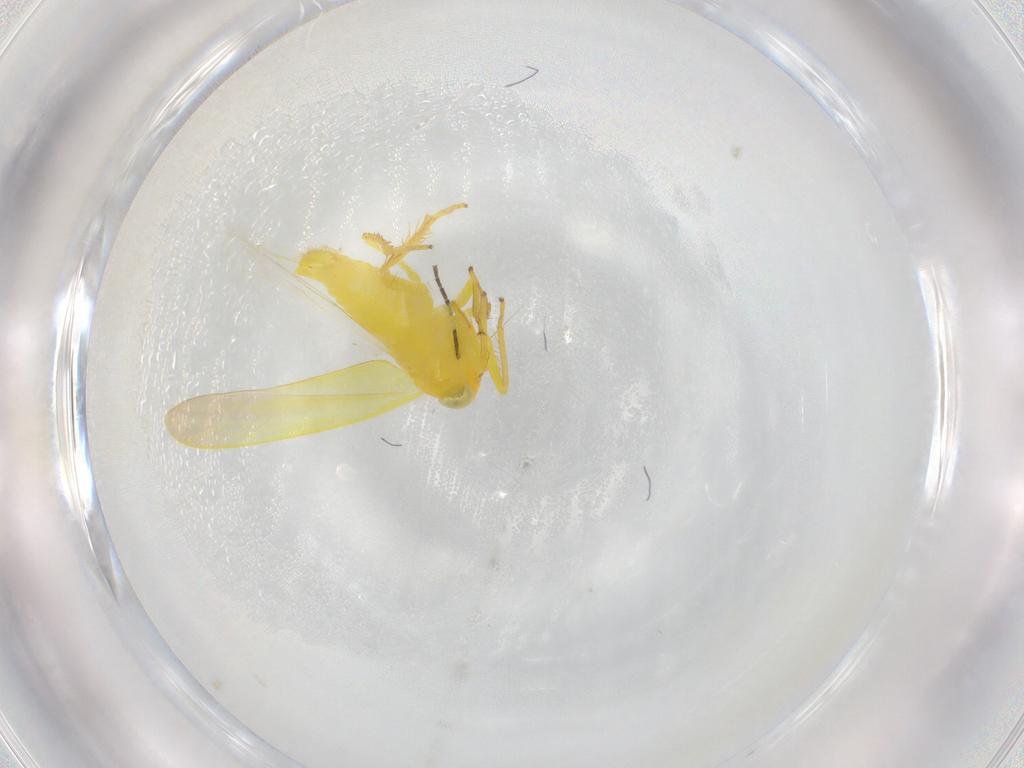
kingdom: Animalia
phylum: Arthropoda
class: Insecta
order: Hemiptera
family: Cicadellidae
